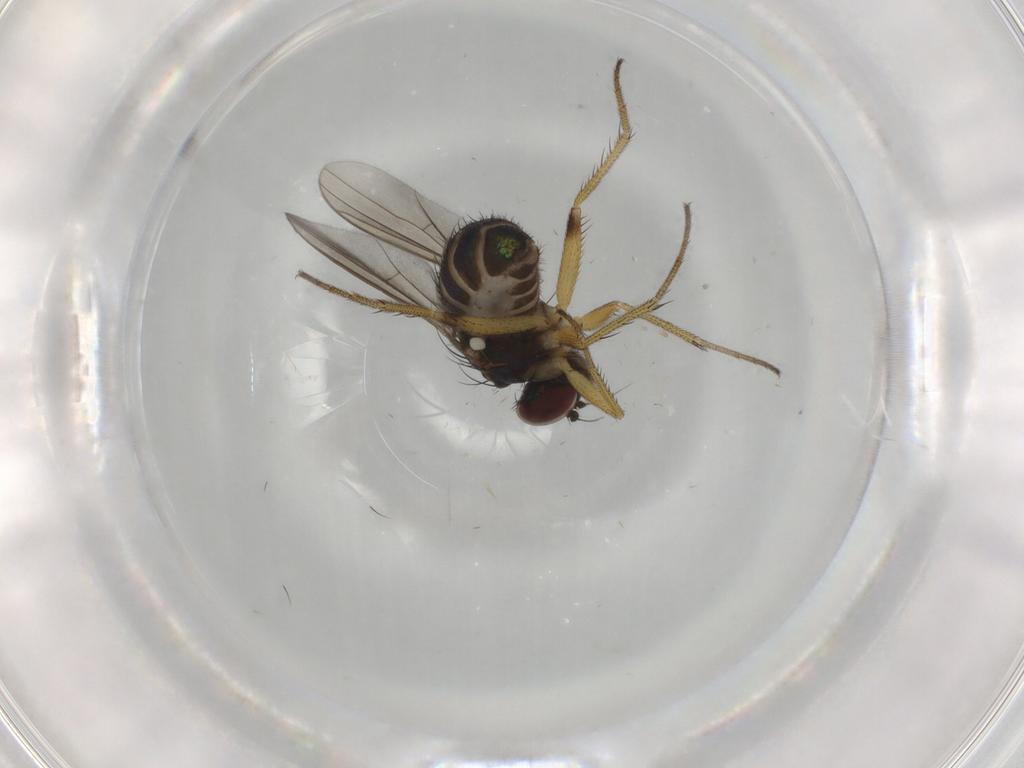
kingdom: Animalia
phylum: Arthropoda
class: Insecta
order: Diptera
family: Dolichopodidae
